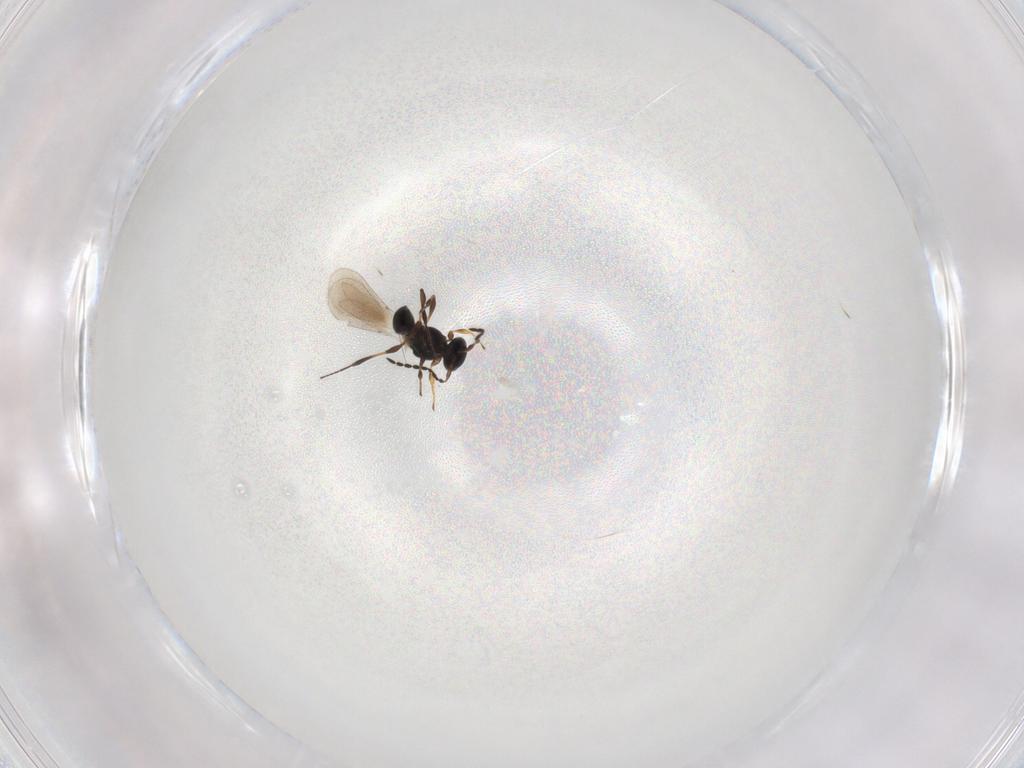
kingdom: Animalia
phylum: Arthropoda
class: Insecta
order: Hymenoptera
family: Platygastridae
